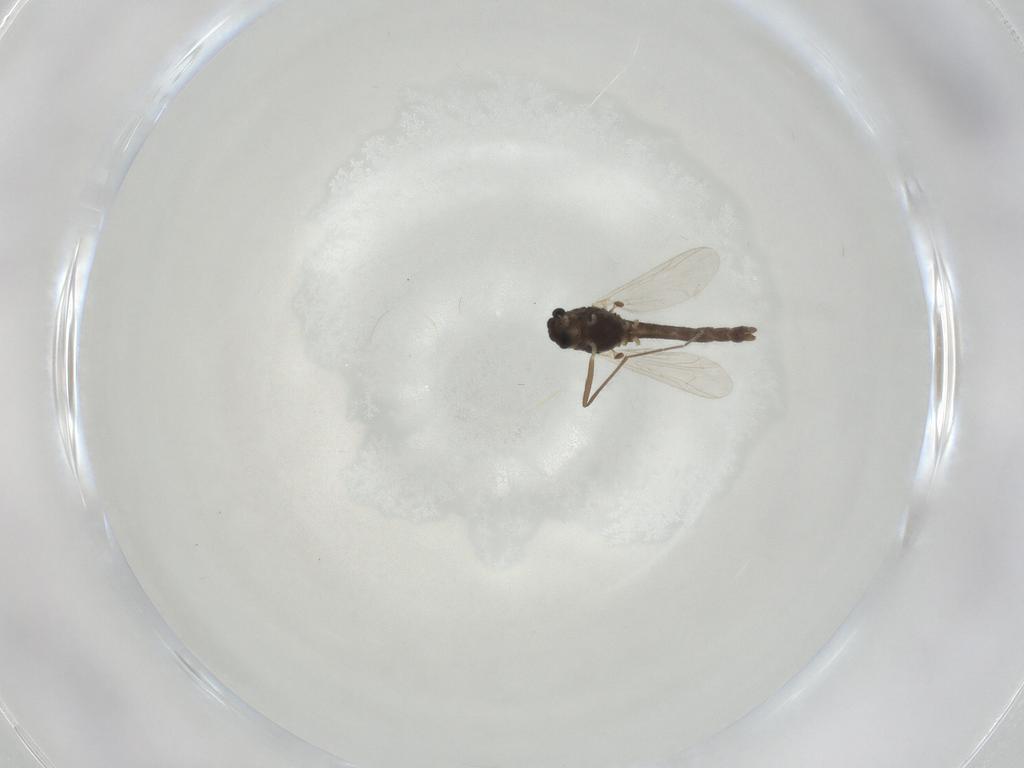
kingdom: Animalia
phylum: Arthropoda
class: Insecta
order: Diptera
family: Chironomidae
